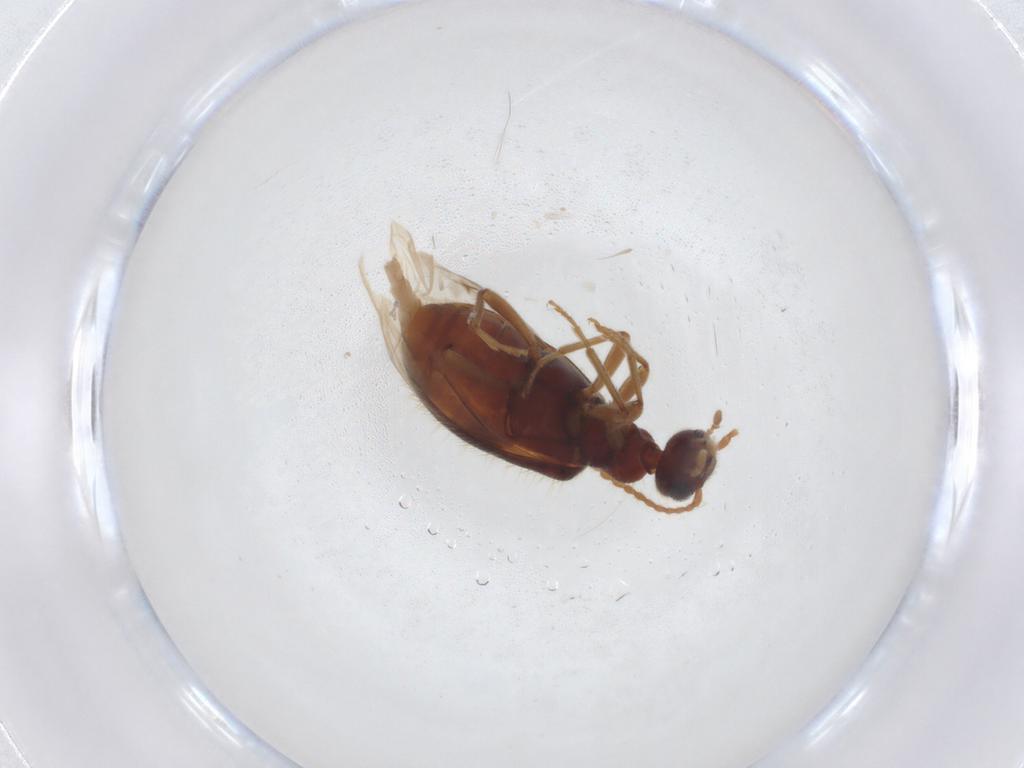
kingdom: Animalia
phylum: Arthropoda
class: Insecta
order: Coleoptera
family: Anthicidae
